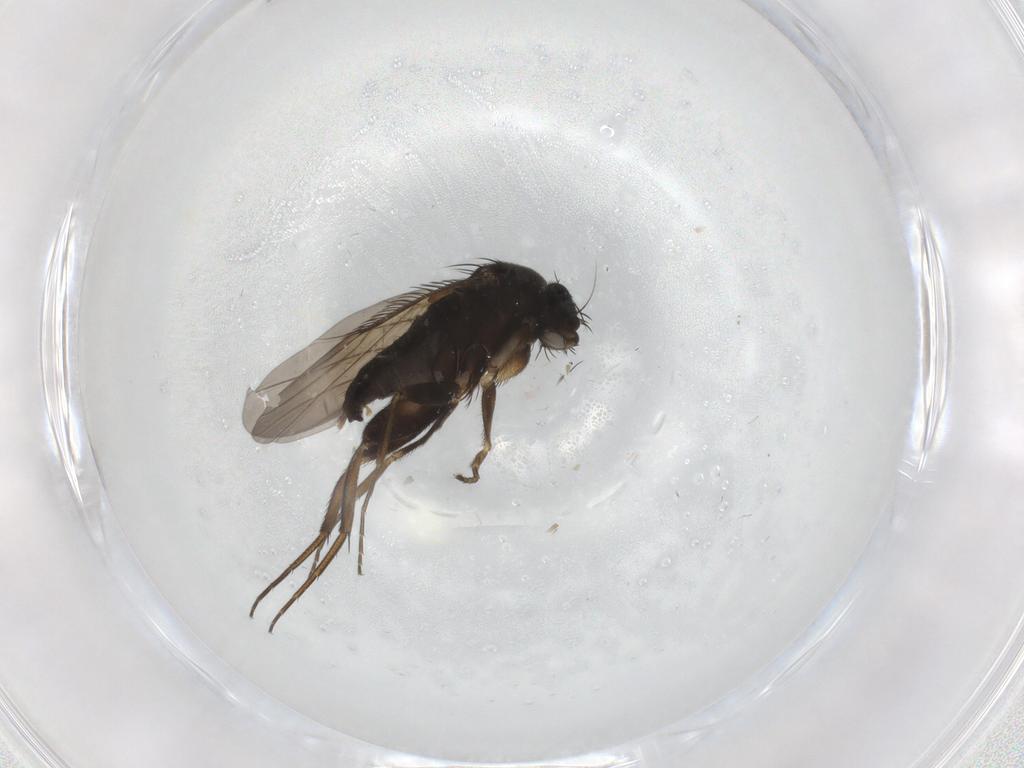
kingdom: Animalia
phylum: Arthropoda
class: Insecta
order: Diptera
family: Phoridae
